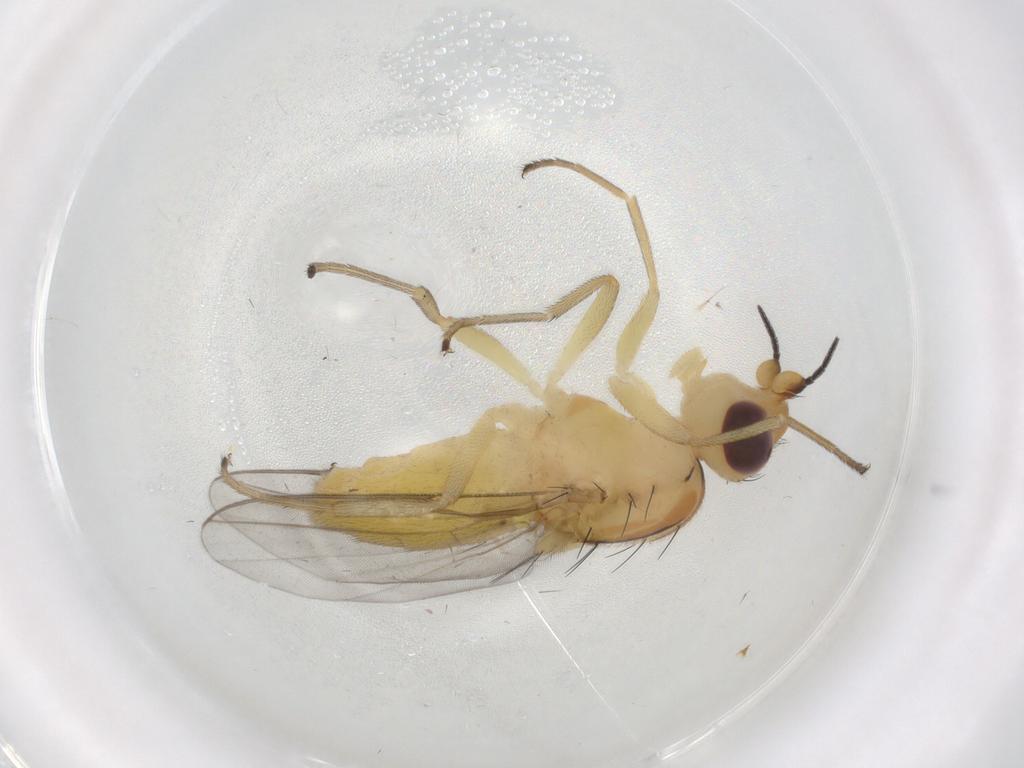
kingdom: Animalia
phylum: Arthropoda
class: Insecta
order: Diptera
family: Chloropidae
